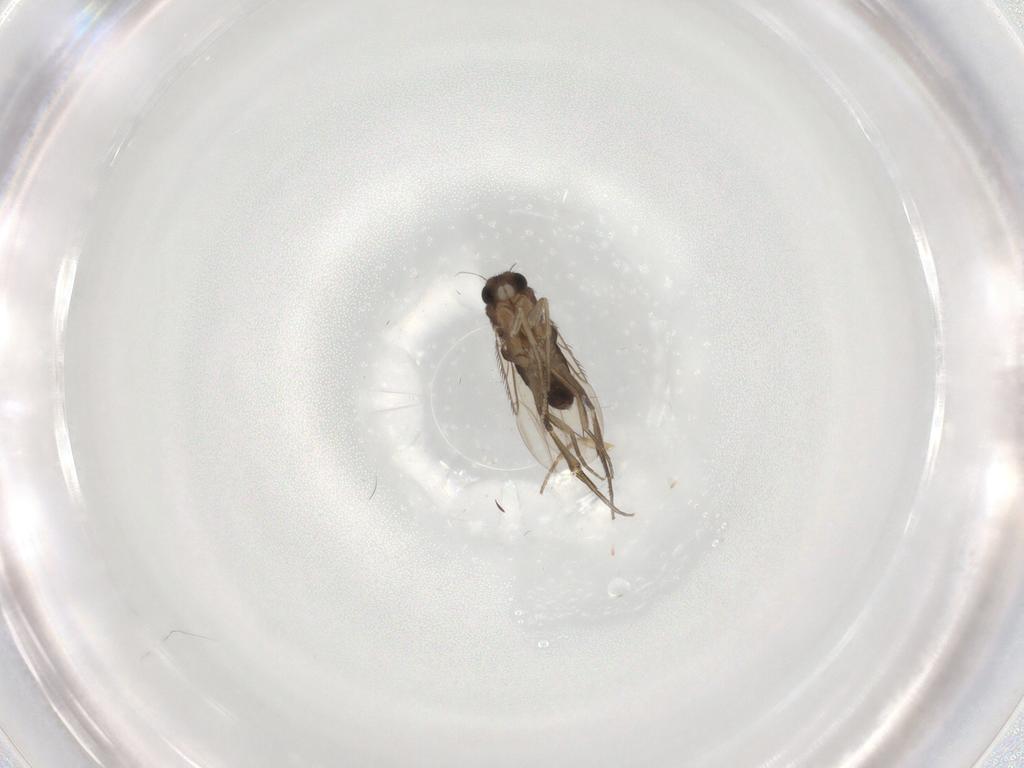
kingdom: Animalia
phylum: Arthropoda
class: Insecta
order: Diptera
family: Phoridae
